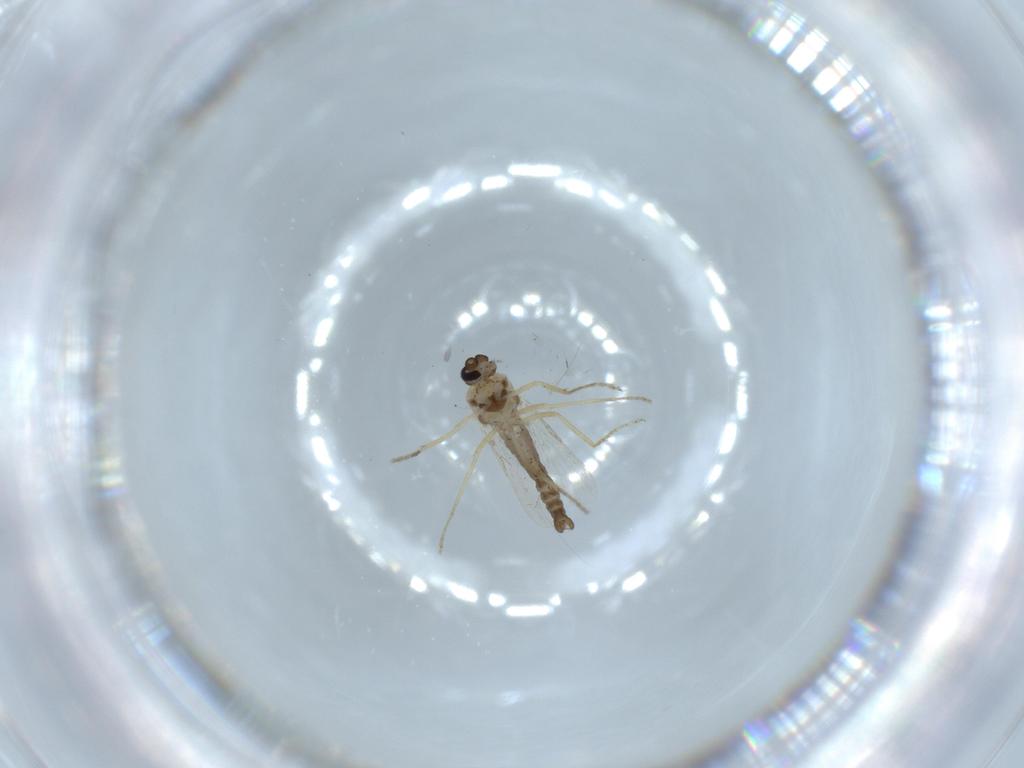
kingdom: Animalia
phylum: Arthropoda
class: Insecta
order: Diptera
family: Ceratopogonidae
